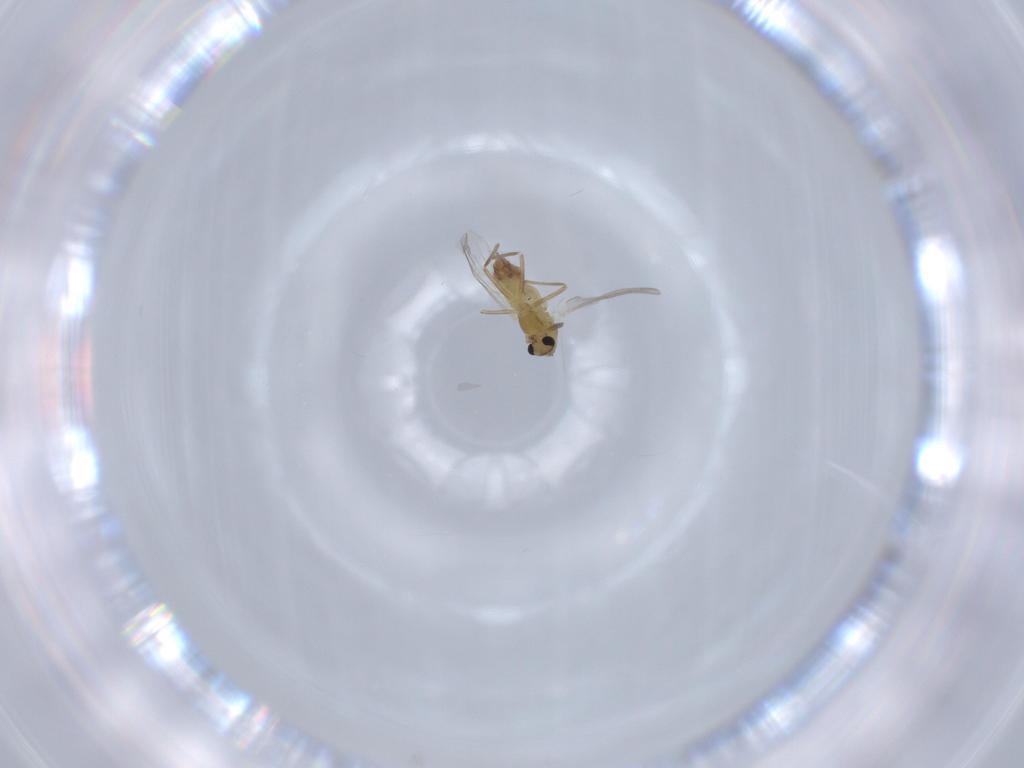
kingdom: Animalia
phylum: Arthropoda
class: Insecta
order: Diptera
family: Chironomidae
